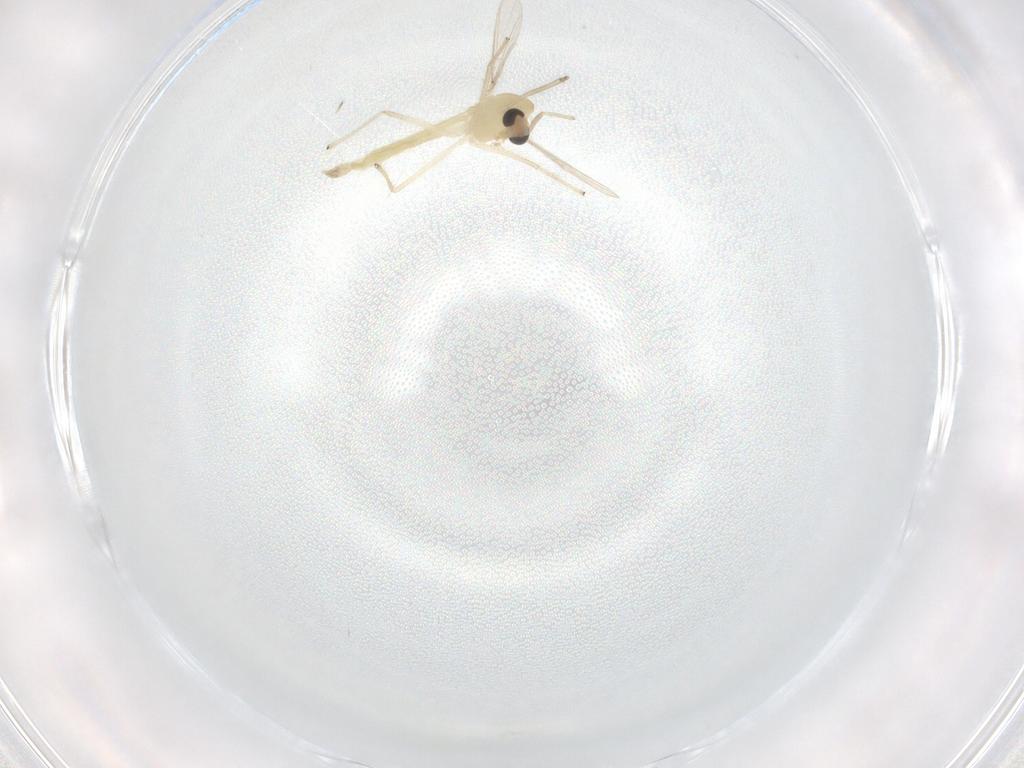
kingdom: Animalia
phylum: Arthropoda
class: Insecta
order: Diptera
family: Chironomidae
